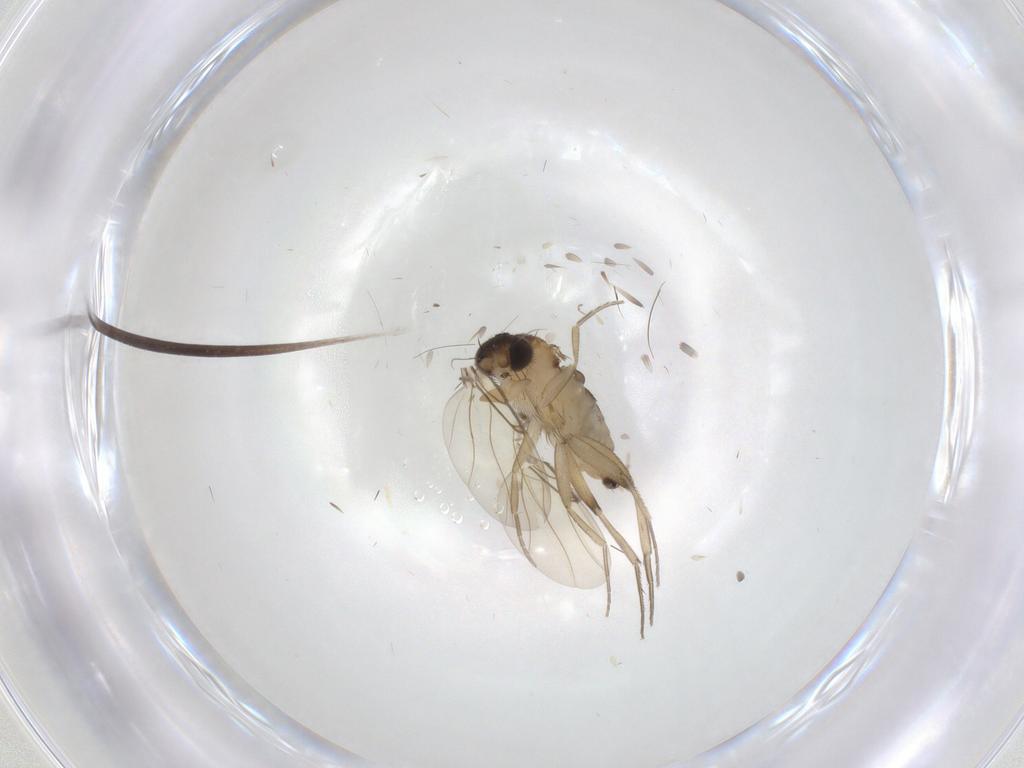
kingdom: Animalia
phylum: Arthropoda
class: Insecta
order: Diptera
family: Phoridae
